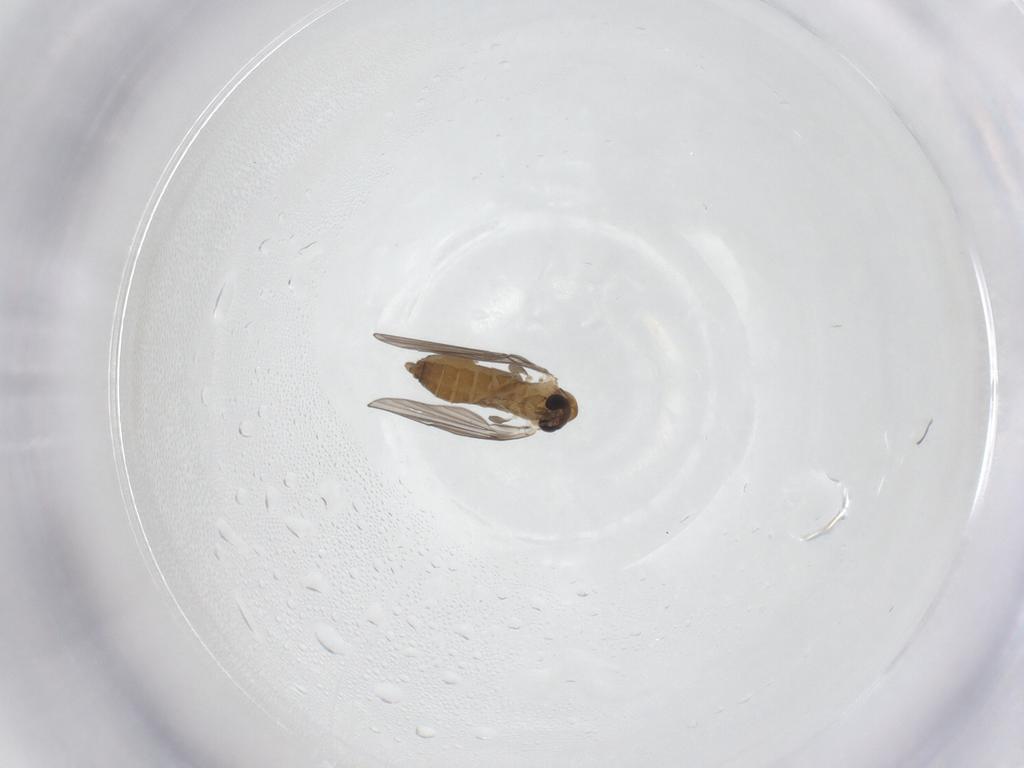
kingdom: Animalia
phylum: Arthropoda
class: Insecta
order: Diptera
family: Psychodidae
